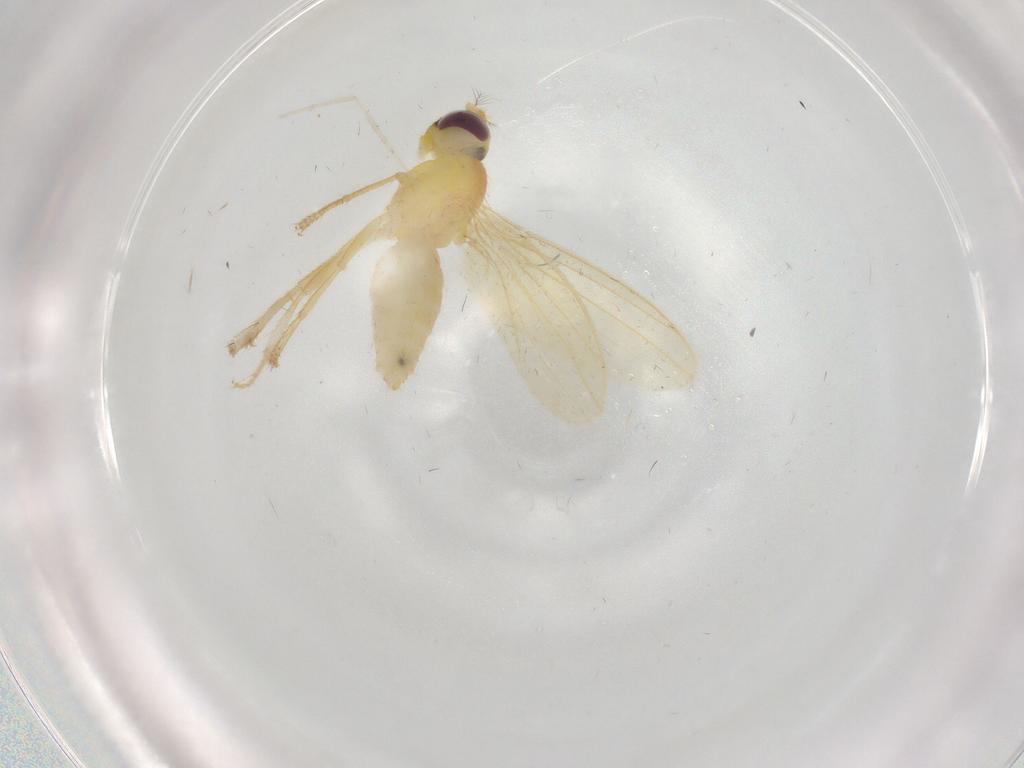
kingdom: Animalia
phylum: Arthropoda
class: Insecta
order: Diptera
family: Periscelididae
